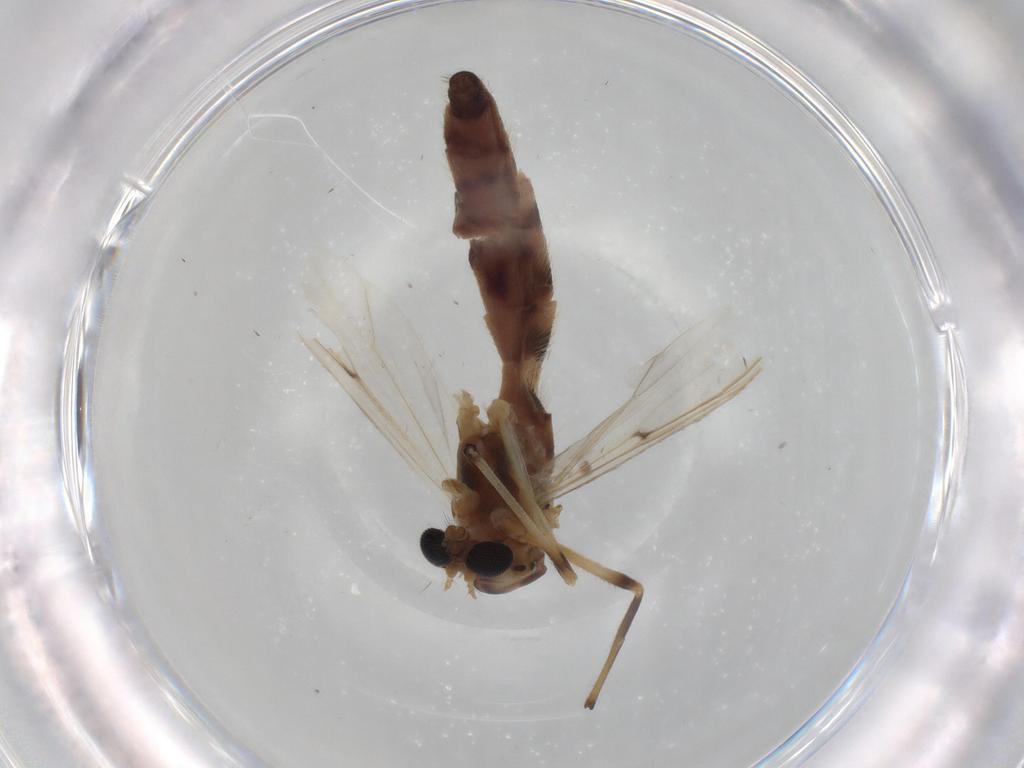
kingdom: Animalia
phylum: Arthropoda
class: Insecta
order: Diptera
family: Chironomidae
